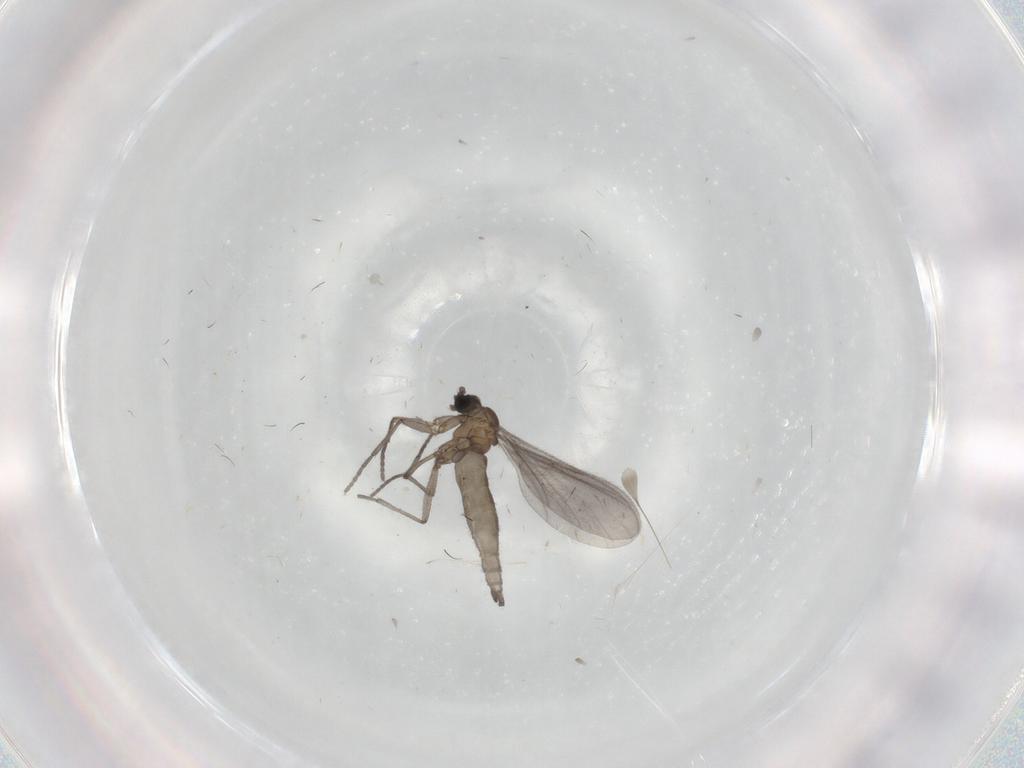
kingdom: Animalia
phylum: Arthropoda
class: Insecta
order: Diptera
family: Sciaridae
